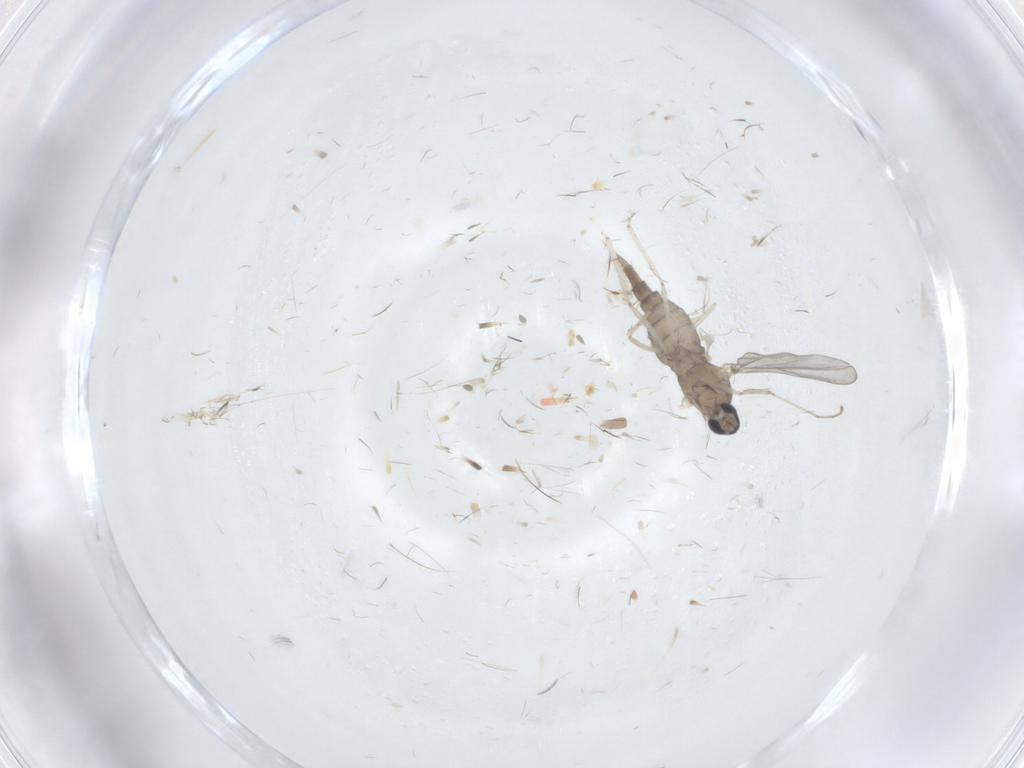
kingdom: Animalia
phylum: Arthropoda
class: Insecta
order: Diptera
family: Cecidomyiidae
